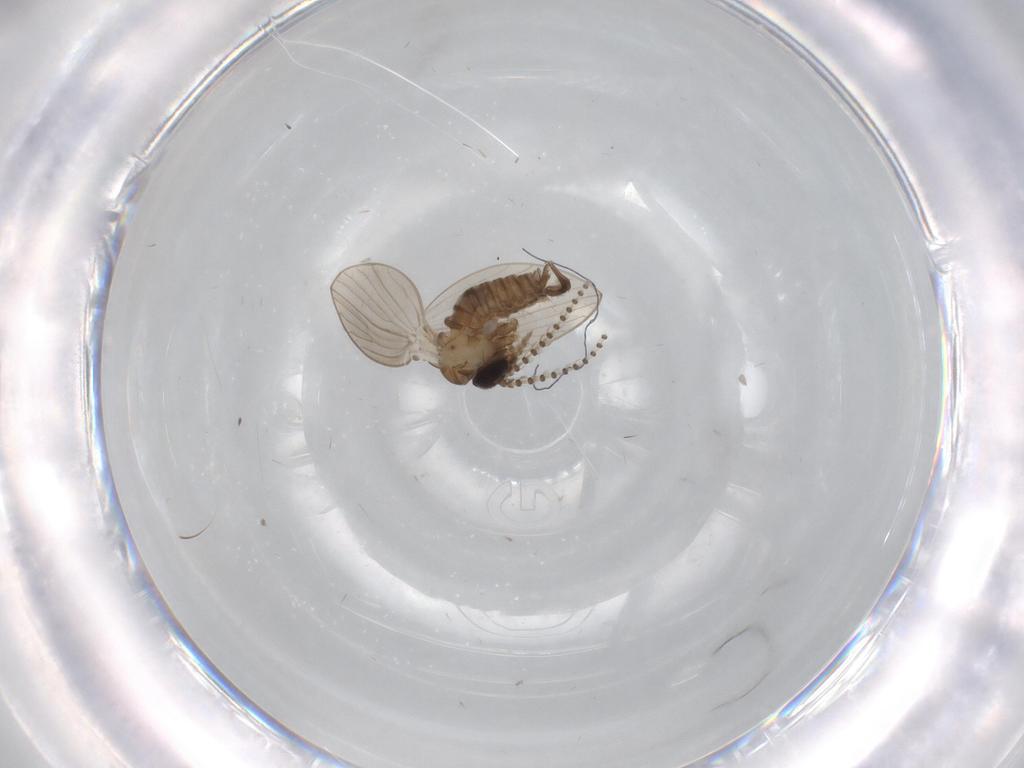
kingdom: Animalia
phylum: Arthropoda
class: Insecta
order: Diptera
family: Psychodidae
